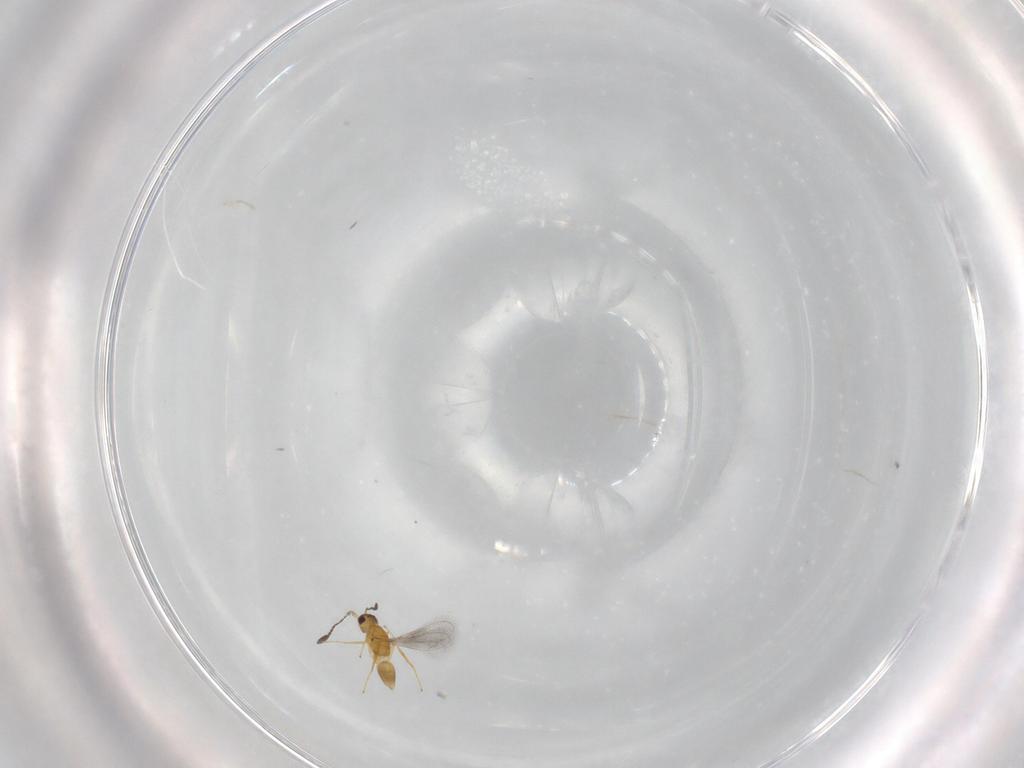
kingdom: Animalia
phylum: Arthropoda
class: Insecta
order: Hymenoptera
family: Mymaridae
